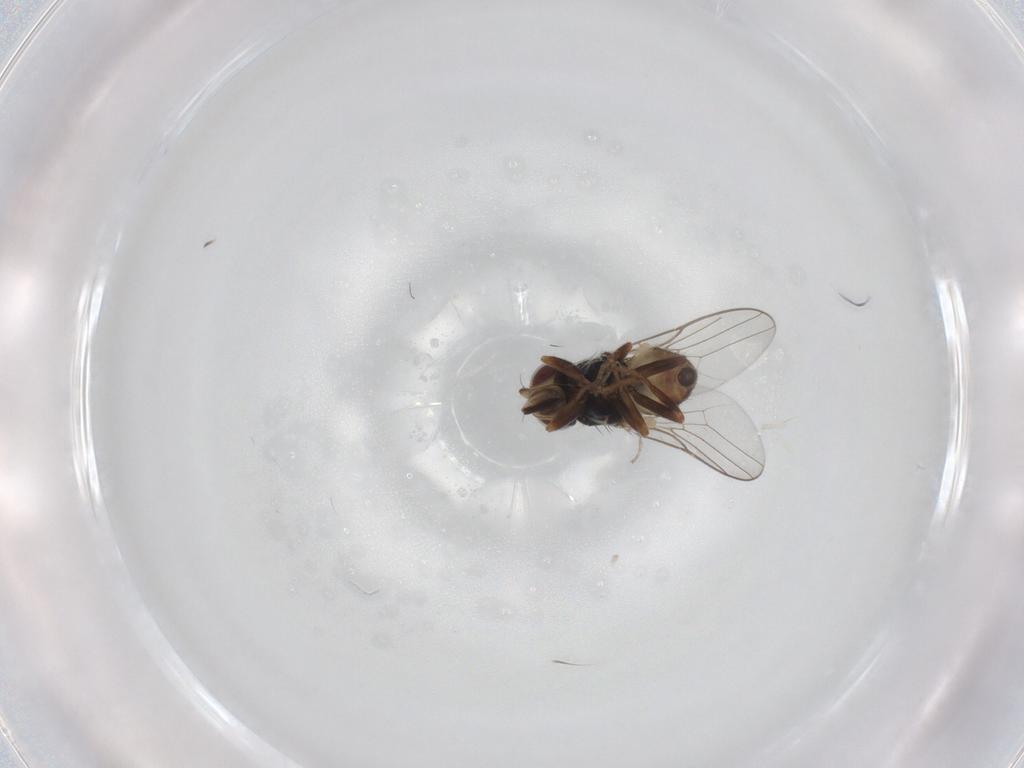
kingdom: Animalia
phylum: Arthropoda
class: Insecta
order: Diptera
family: Chloropidae
